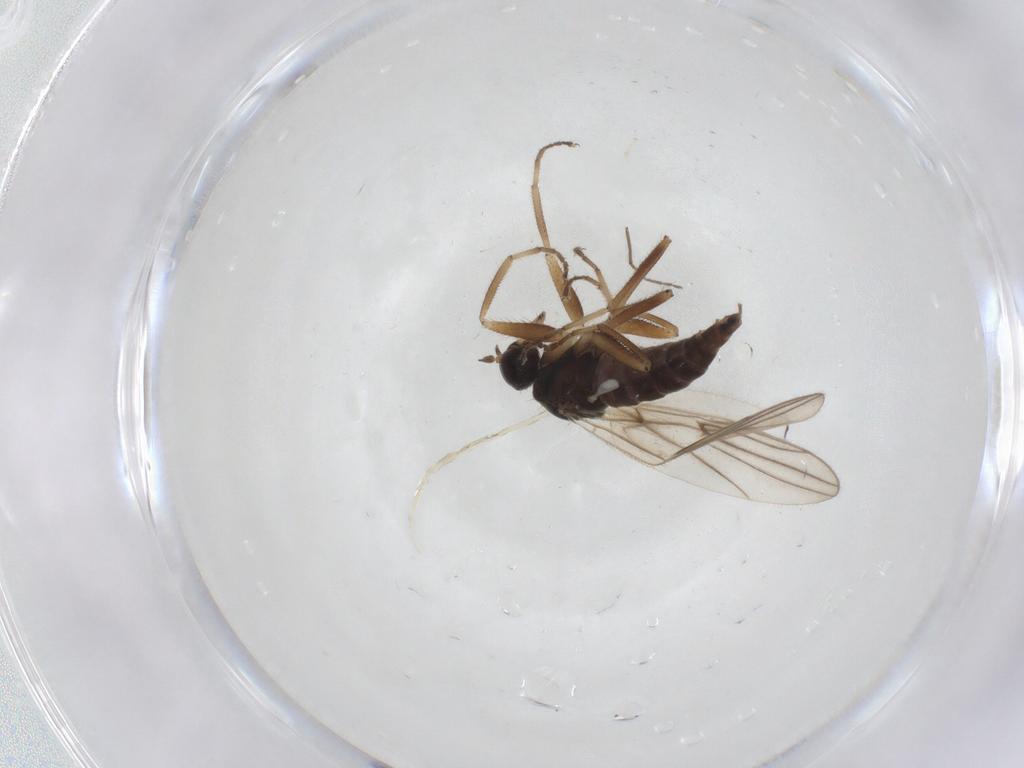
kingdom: Animalia
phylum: Arthropoda
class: Insecta
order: Diptera
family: Hybotidae
